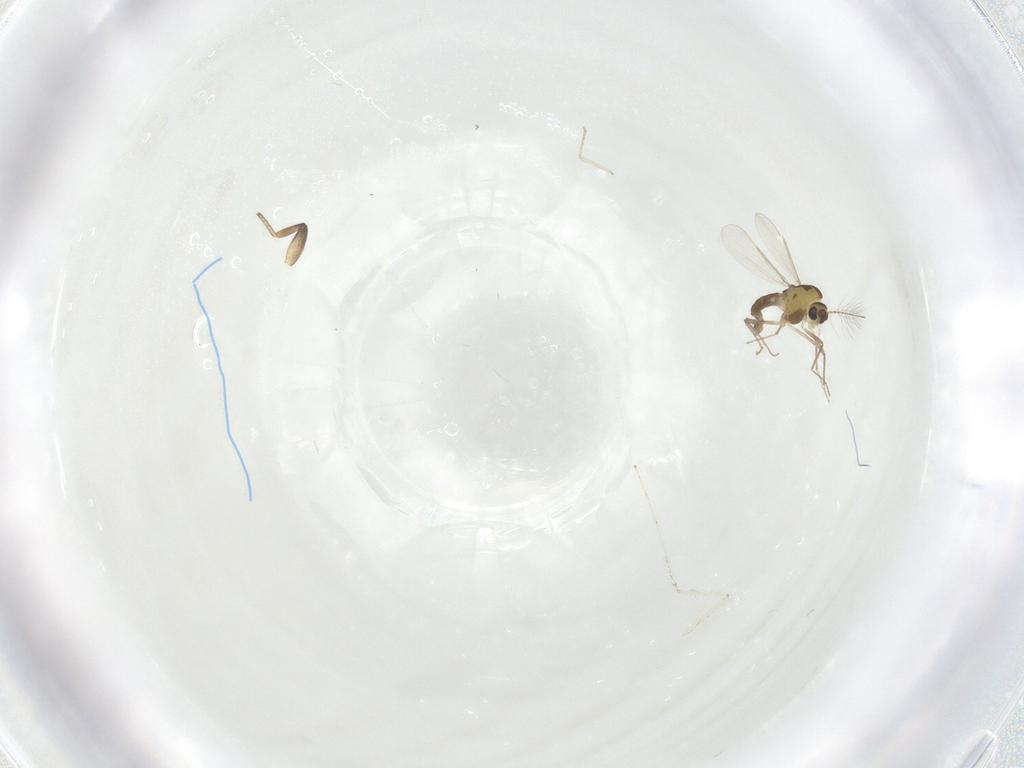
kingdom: Animalia
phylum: Arthropoda
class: Insecta
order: Diptera
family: Chironomidae
